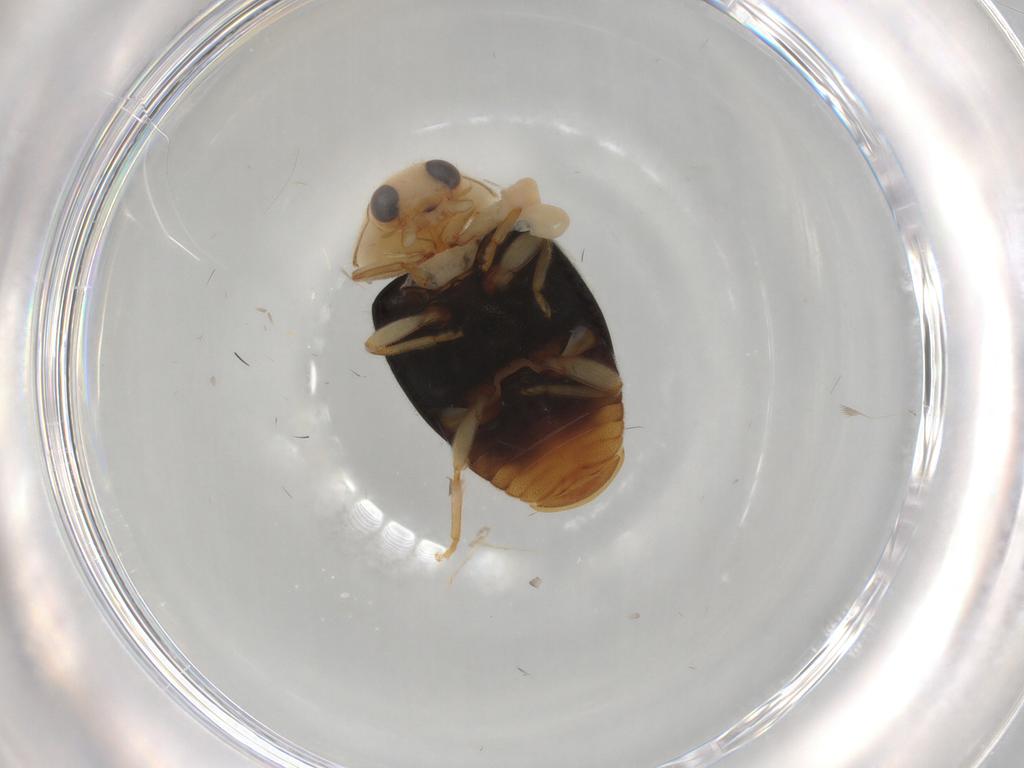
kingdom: Animalia
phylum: Arthropoda
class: Insecta
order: Coleoptera
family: Coccinellidae
